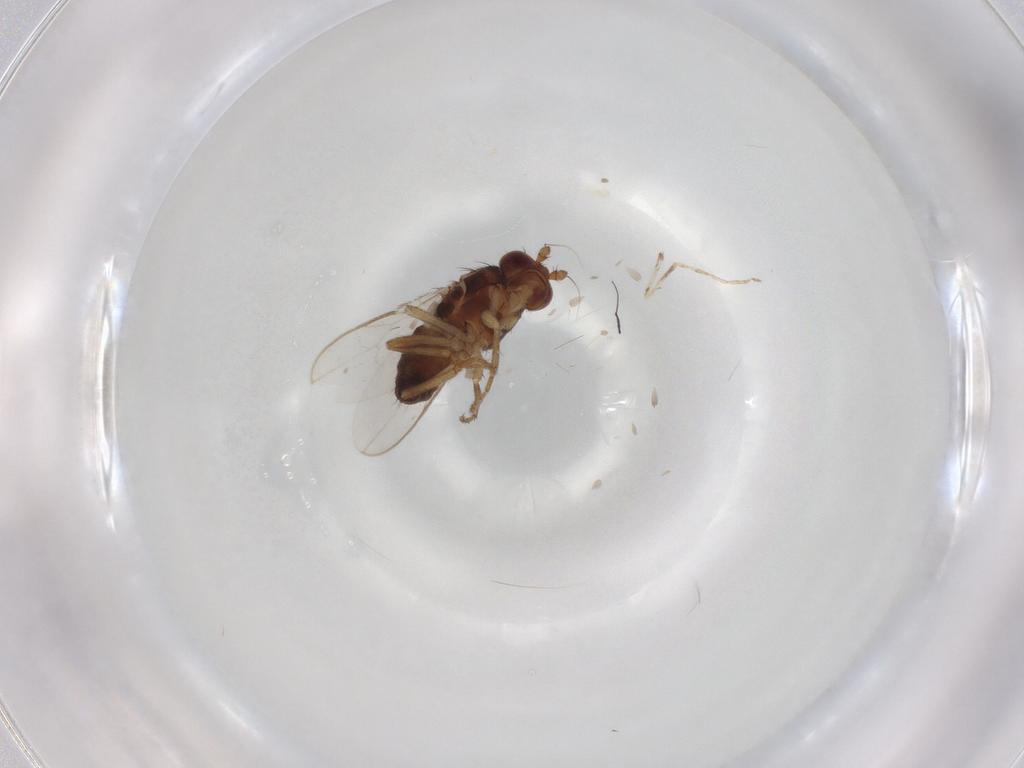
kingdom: Animalia
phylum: Arthropoda
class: Insecta
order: Diptera
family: Sphaeroceridae
